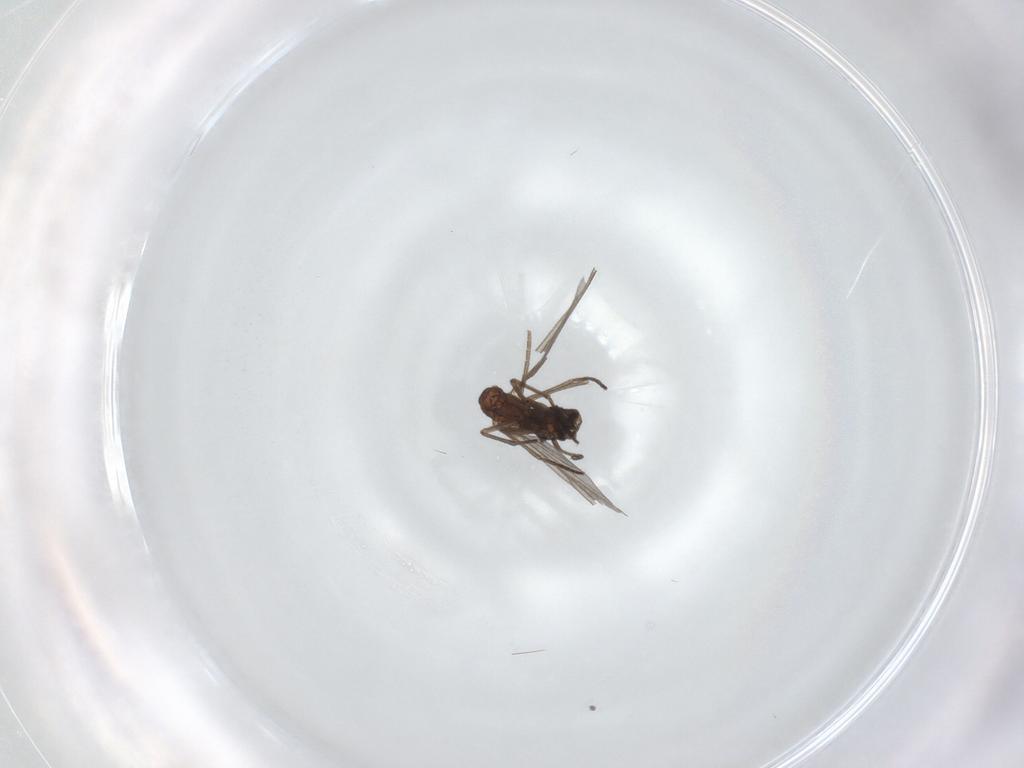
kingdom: Animalia
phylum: Arthropoda
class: Insecta
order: Diptera
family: Sciaridae
